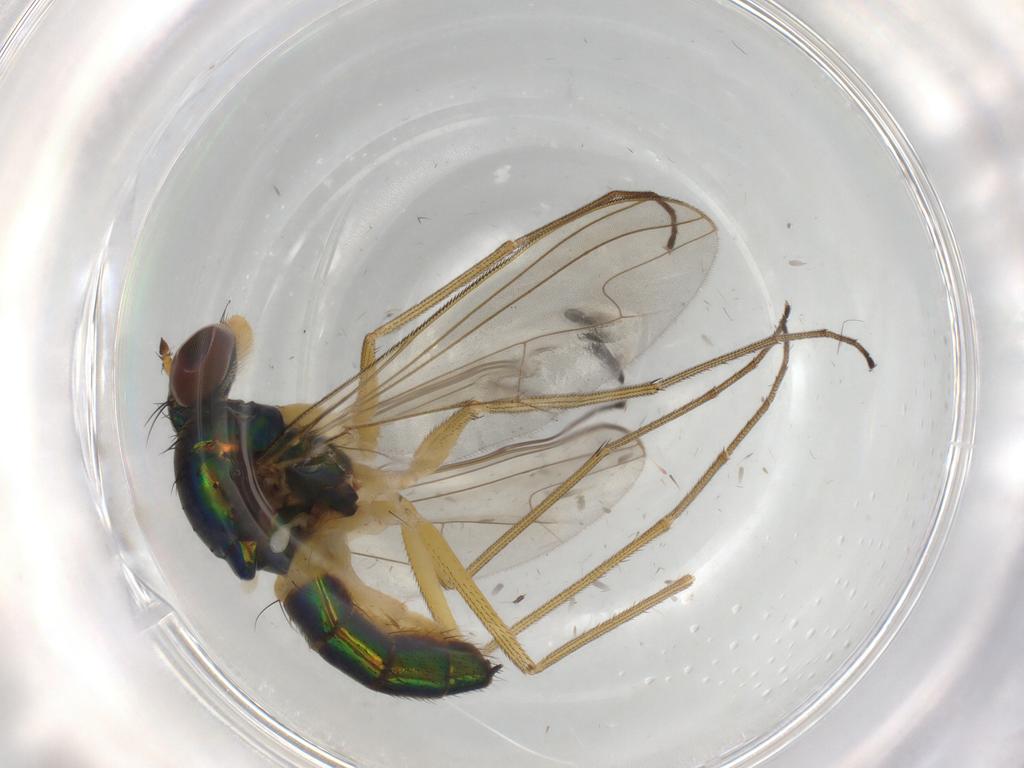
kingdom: Animalia
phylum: Arthropoda
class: Insecta
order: Diptera
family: Dolichopodidae
